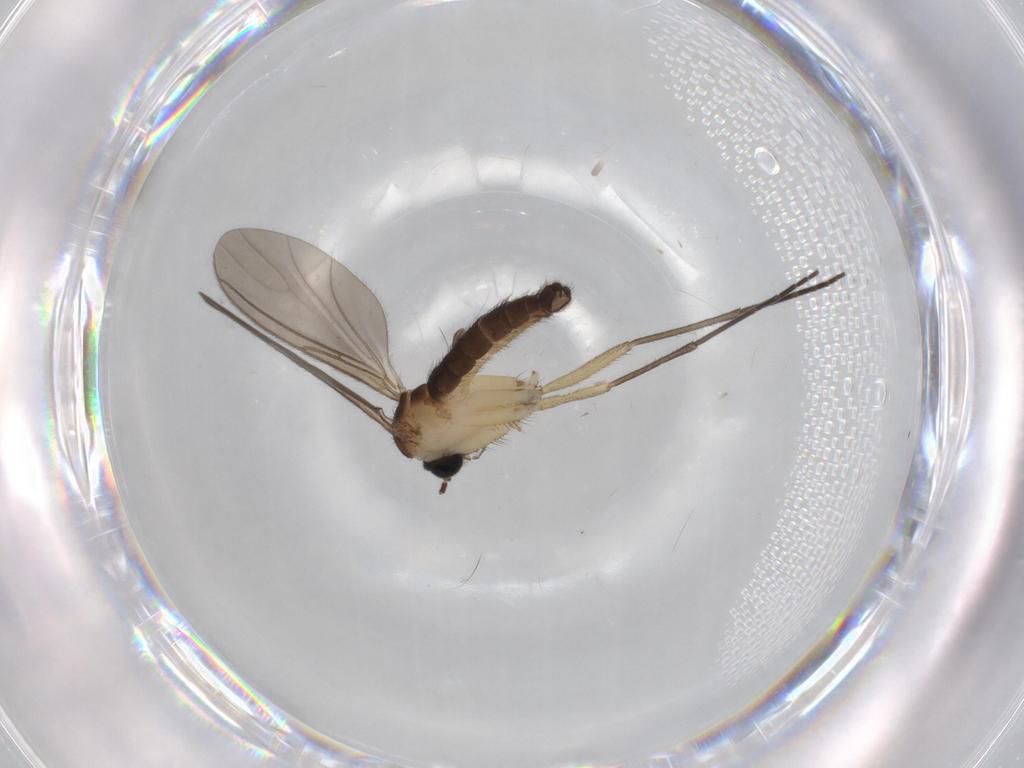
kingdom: Animalia
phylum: Arthropoda
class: Insecta
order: Diptera
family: Sciaridae
